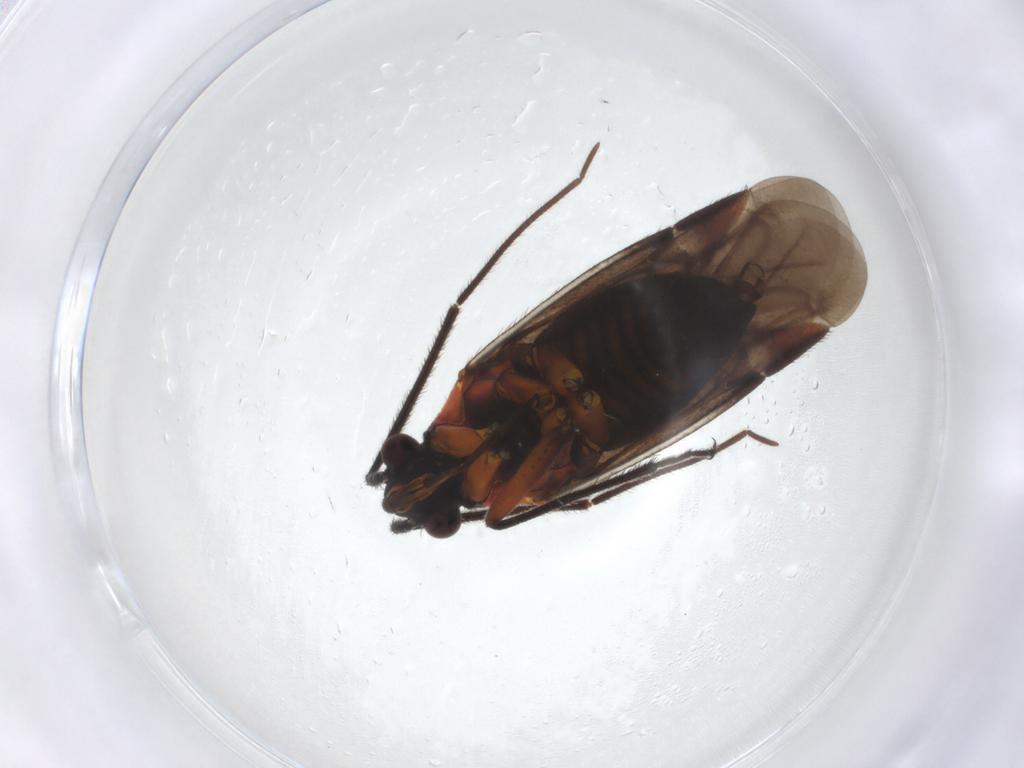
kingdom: Animalia
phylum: Arthropoda
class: Insecta
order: Hemiptera
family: Miridae
